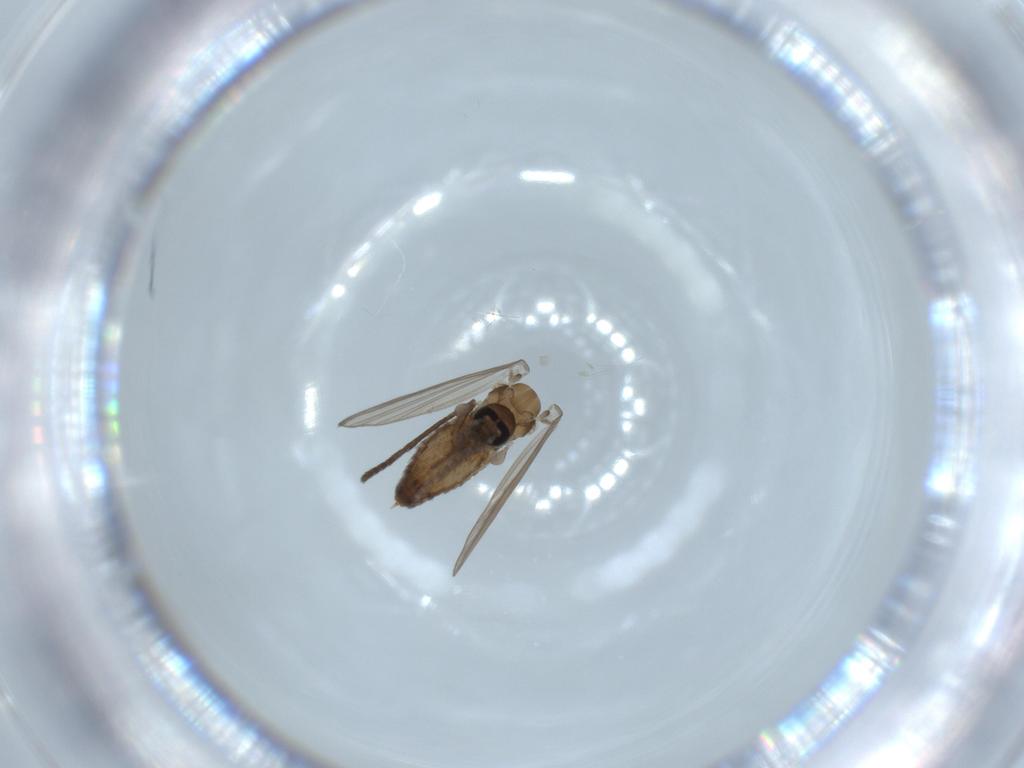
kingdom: Animalia
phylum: Arthropoda
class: Insecta
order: Diptera
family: Psychodidae
